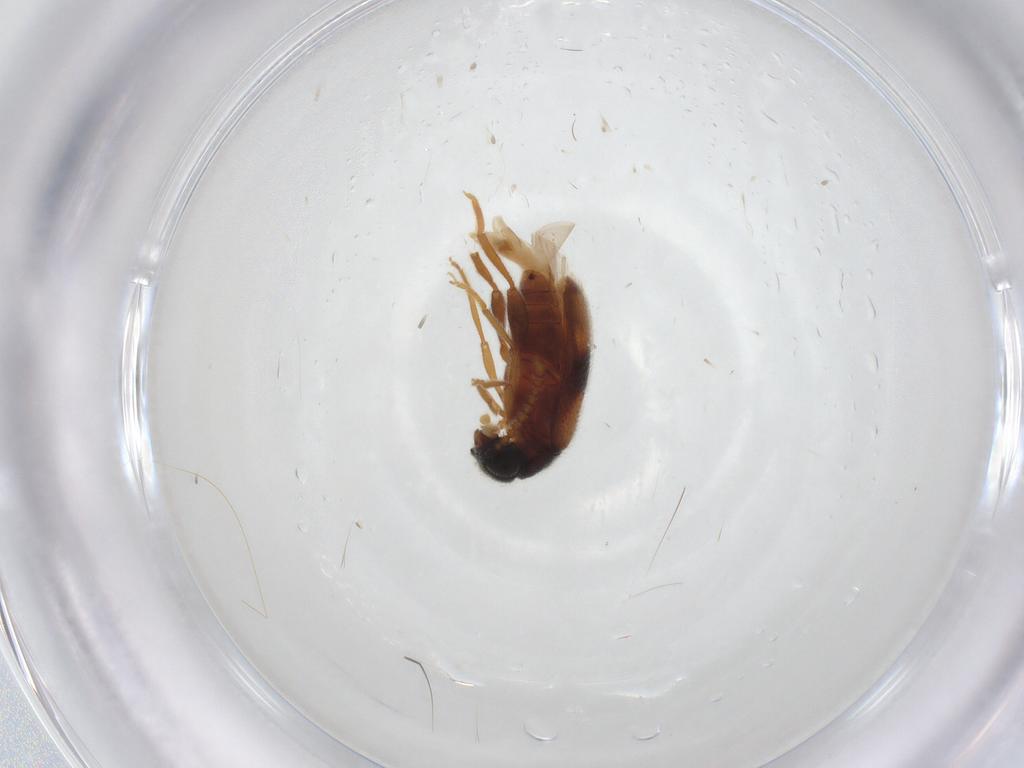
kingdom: Animalia
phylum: Arthropoda
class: Insecta
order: Coleoptera
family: Aderidae
